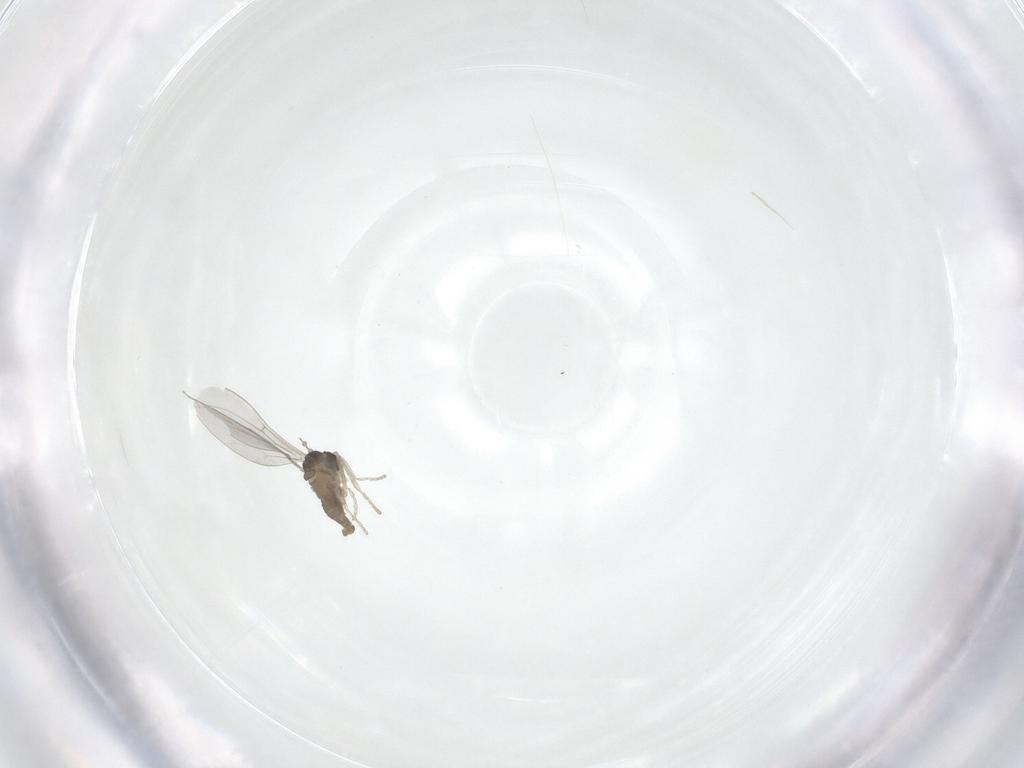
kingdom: Animalia
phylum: Arthropoda
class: Insecta
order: Diptera
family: Cecidomyiidae
